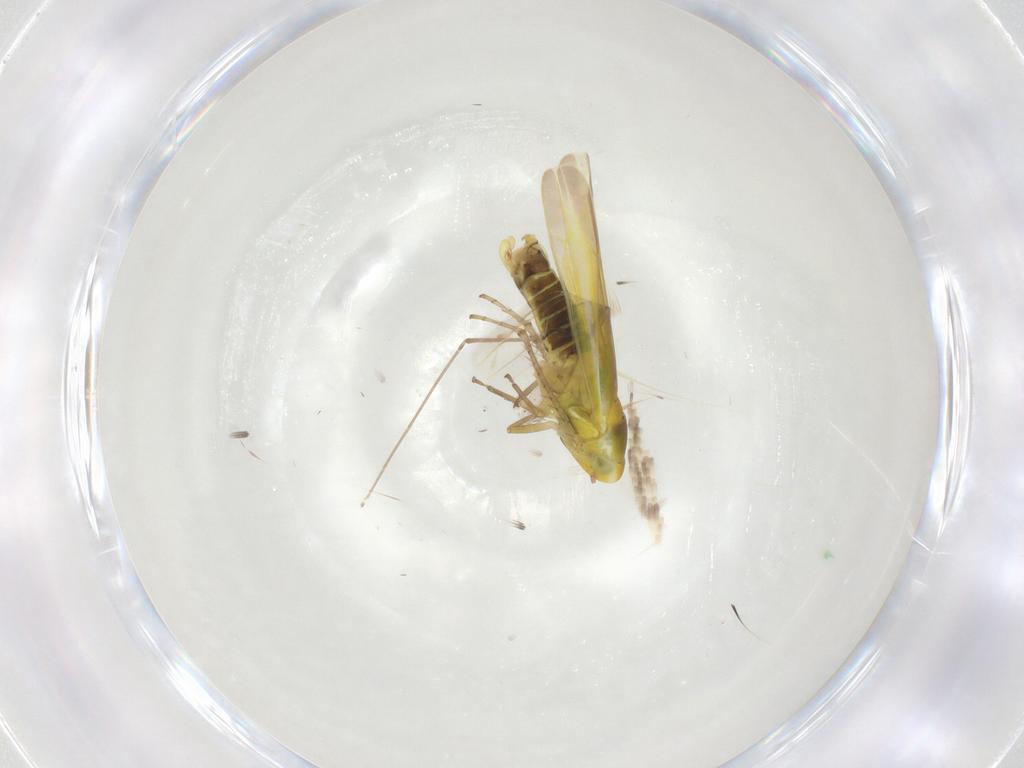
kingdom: Animalia
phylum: Arthropoda
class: Insecta
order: Hemiptera
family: Cicadellidae
